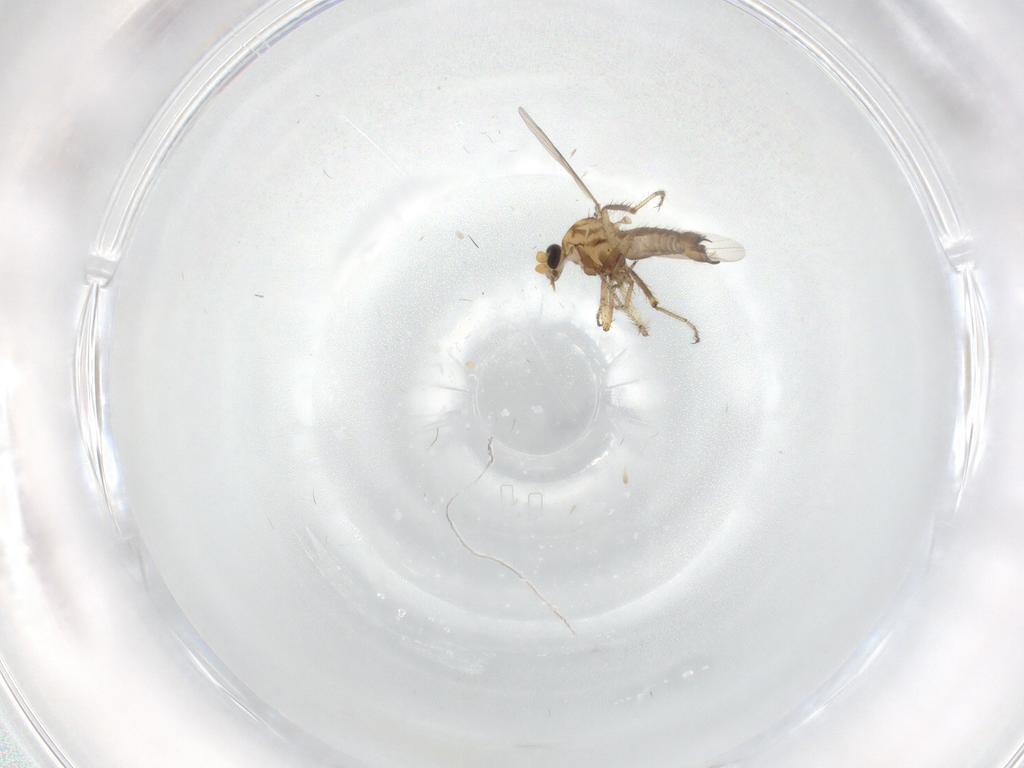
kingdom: Animalia
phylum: Arthropoda
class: Insecta
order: Diptera
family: Ceratopogonidae
